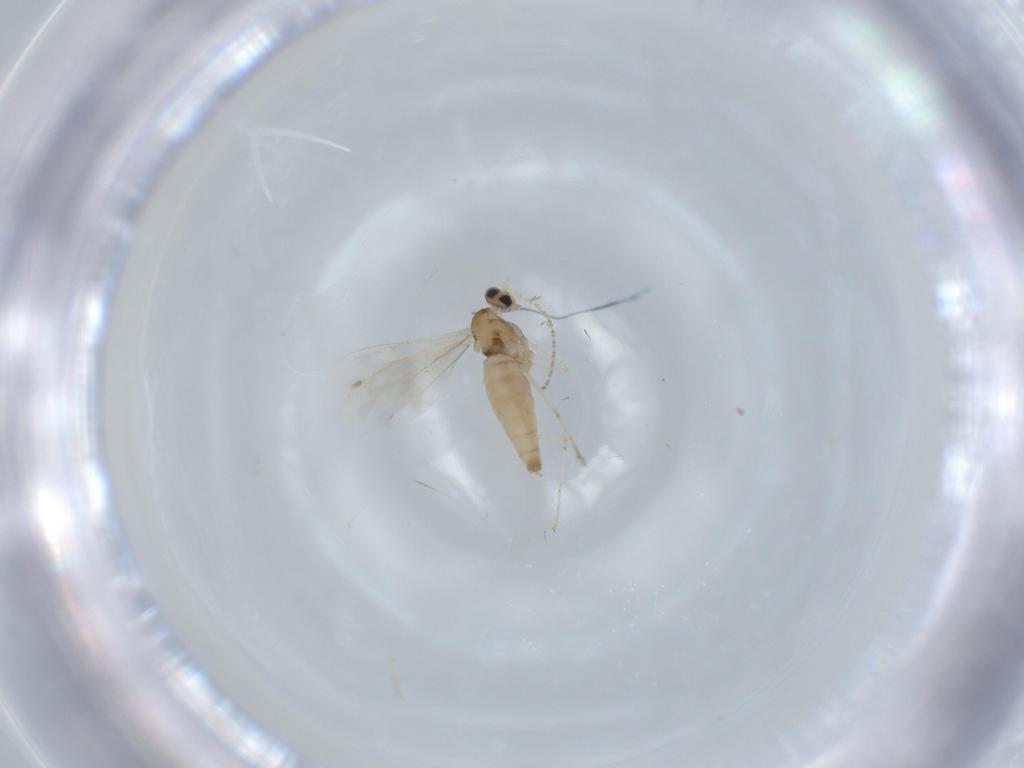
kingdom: Animalia
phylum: Arthropoda
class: Insecta
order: Diptera
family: Cecidomyiidae
